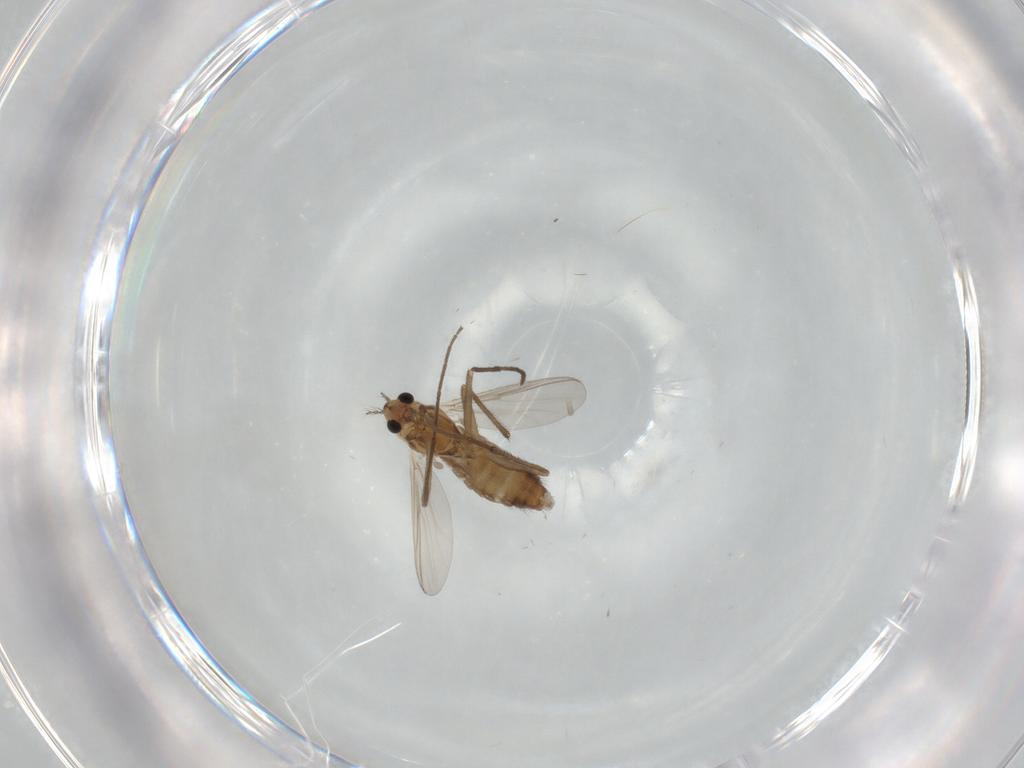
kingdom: Animalia
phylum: Arthropoda
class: Insecta
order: Diptera
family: Chironomidae
